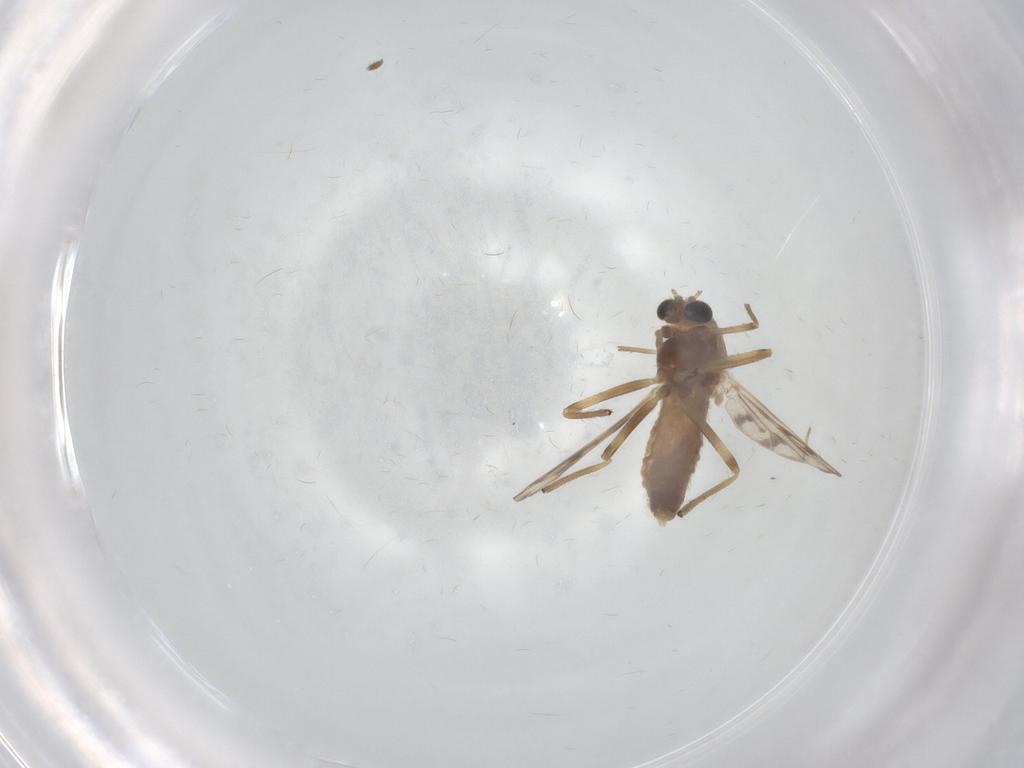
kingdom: Animalia
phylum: Arthropoda
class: Insecta
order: Diptera
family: Chironomidae
